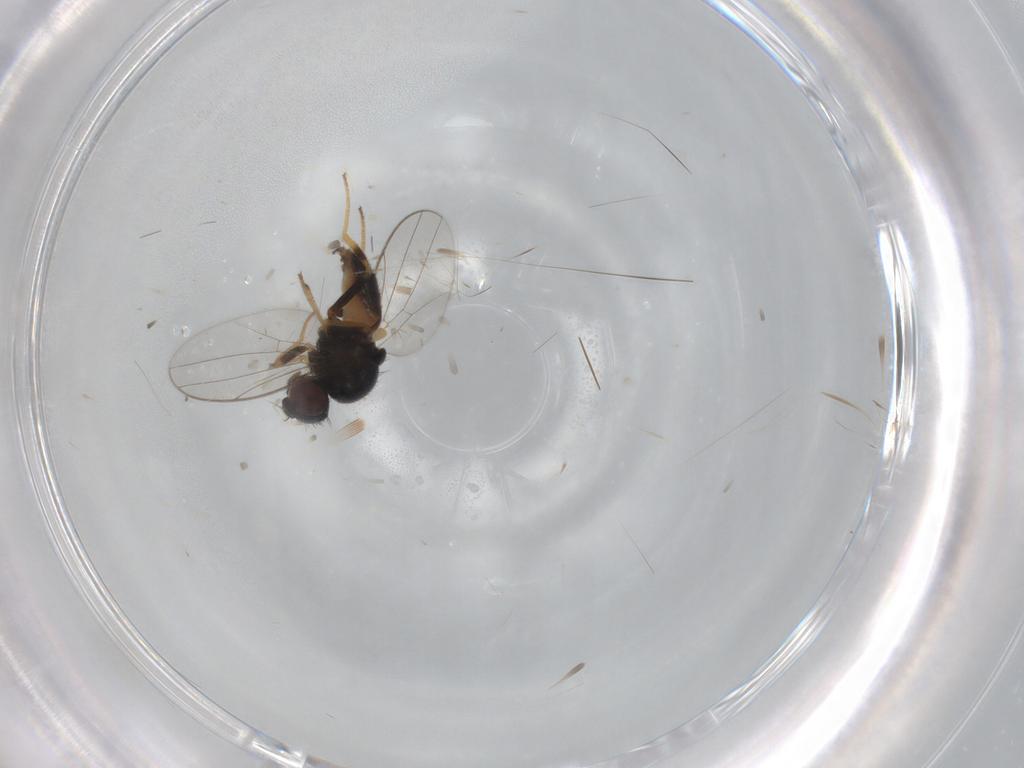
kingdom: Animalia
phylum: Arthropoda
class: Insecta
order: Diptera
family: Chloropidae
